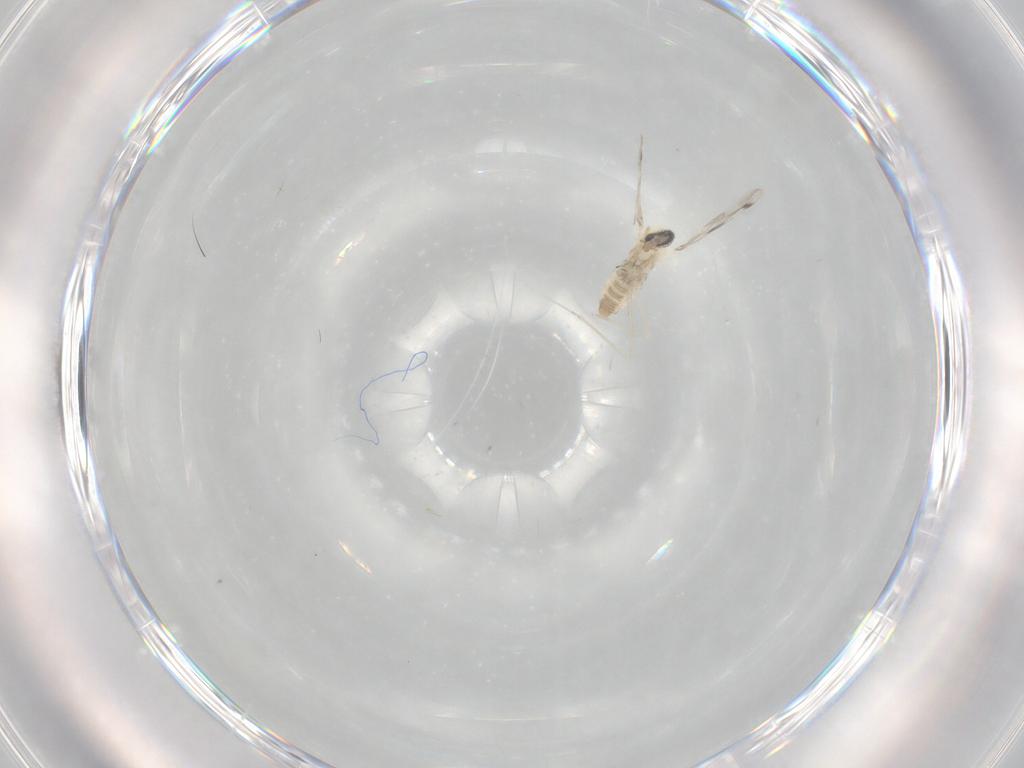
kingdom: Animalia
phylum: Arthropoda
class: Insecta
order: Diptera
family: Cecidomyiidae
